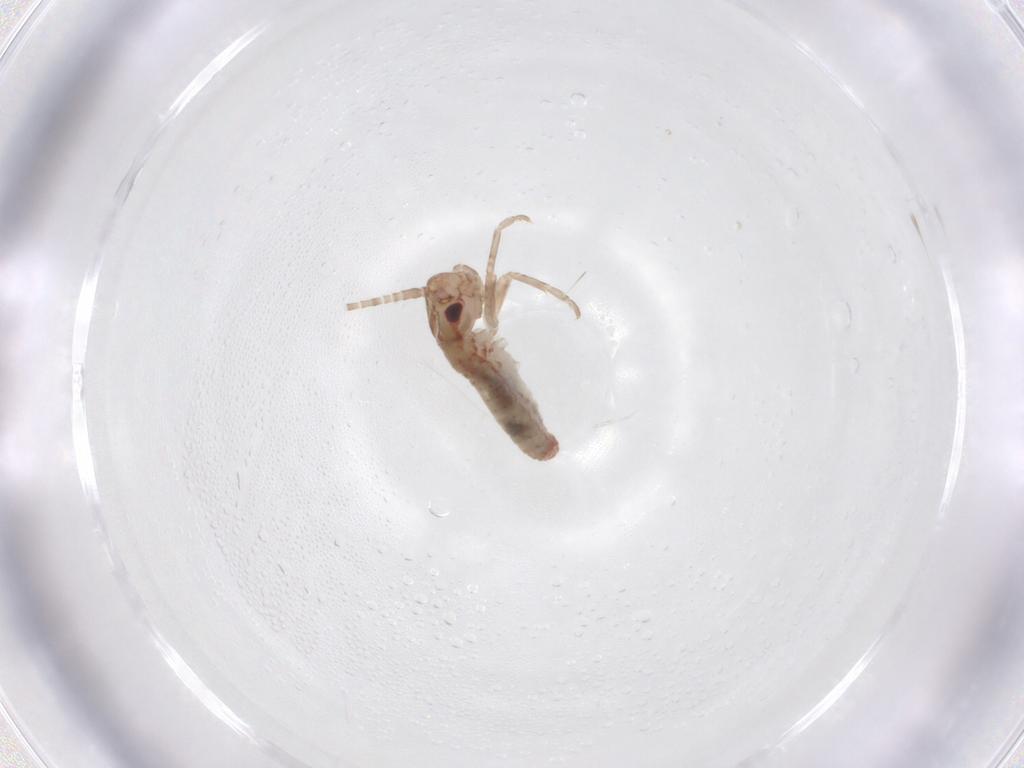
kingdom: Animalia
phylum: Arthropoda
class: Insecta
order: Orthoptera
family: Mogoplistidae
